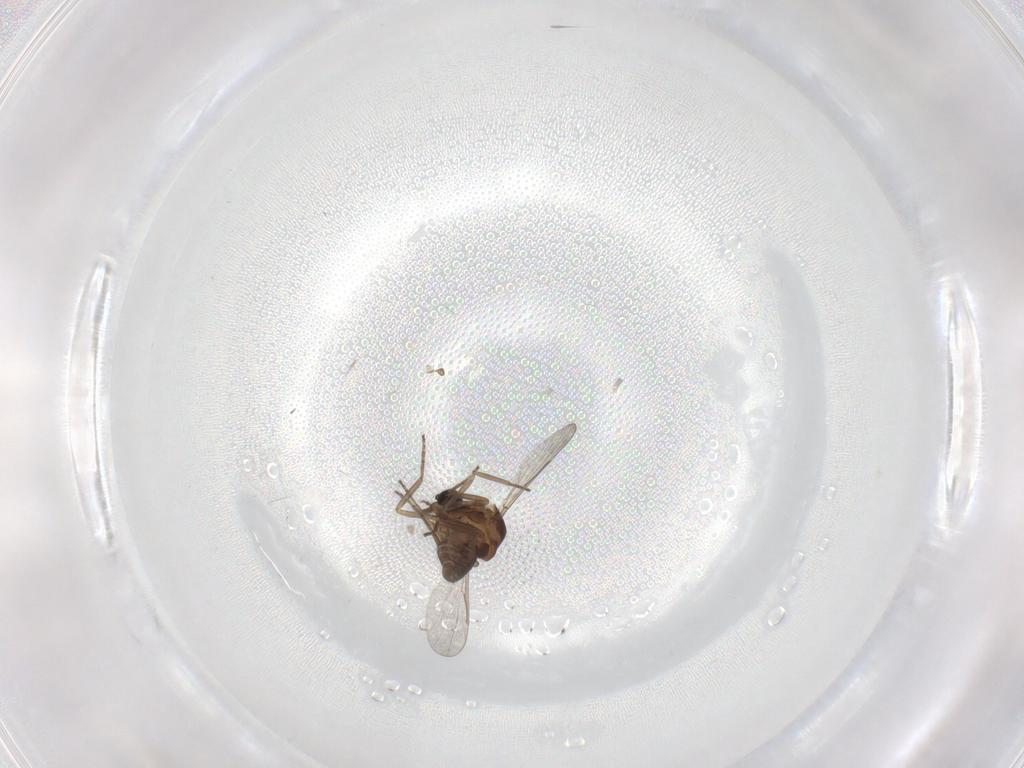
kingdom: Animalia
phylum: Arthropoda
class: Insecta
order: Diptera
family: Ceratopogonidae
